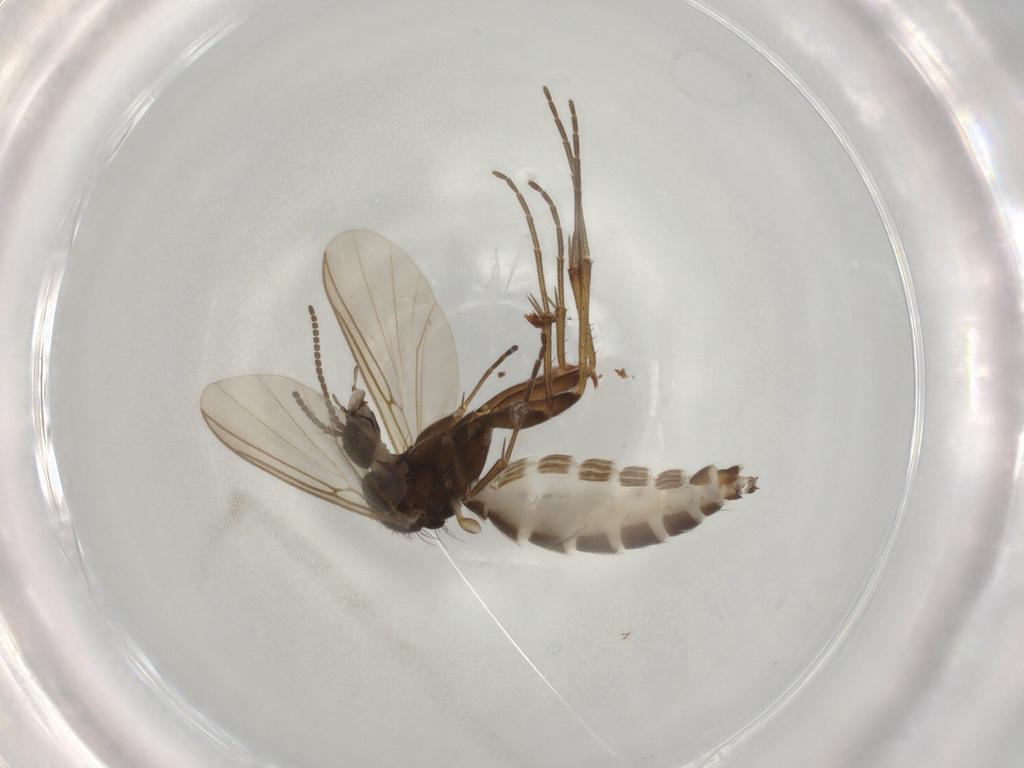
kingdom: Animalia
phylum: Arthropoda
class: Insecta
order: Diptera
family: Mycetophilidae
